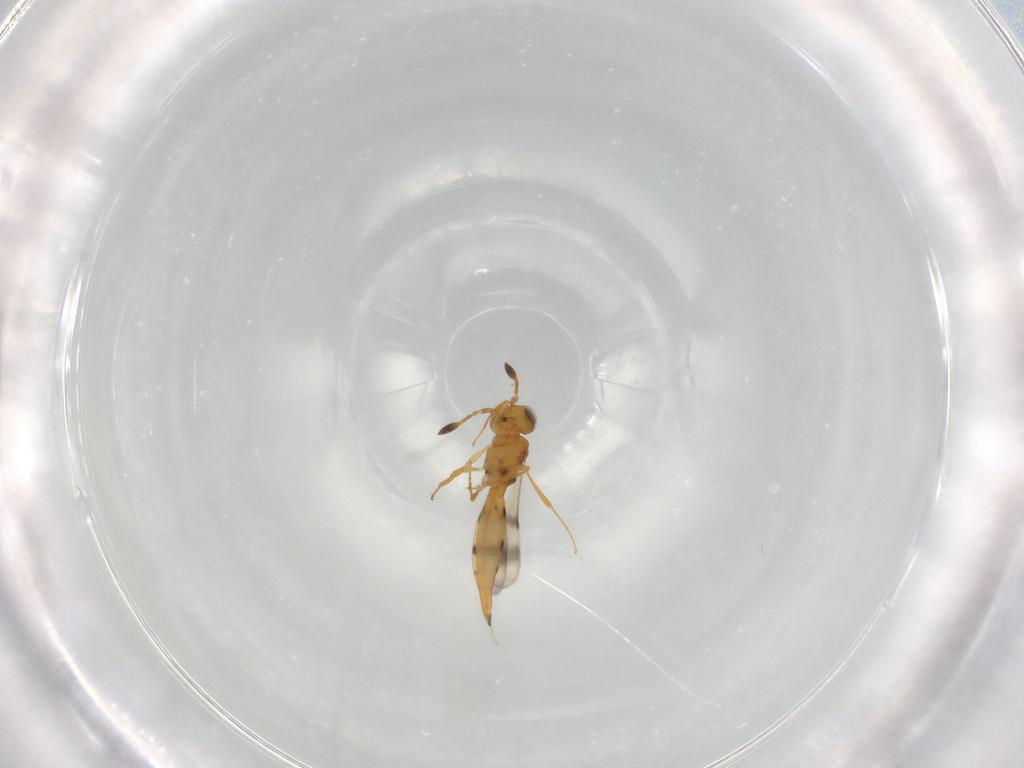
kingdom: Animalia
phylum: Arthropoda
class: Insecta
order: Hymenoptera
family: Scelionidae
